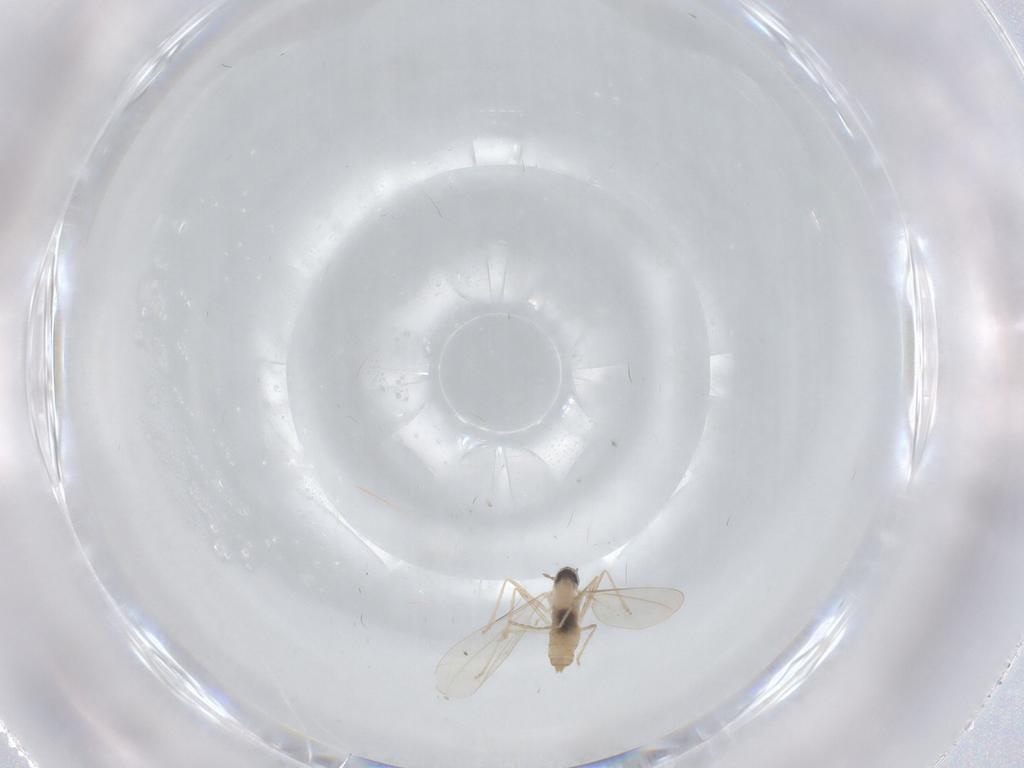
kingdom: Animalia
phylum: Arthropoda
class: Insecta
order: Diptera
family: Cecidomyiidae
